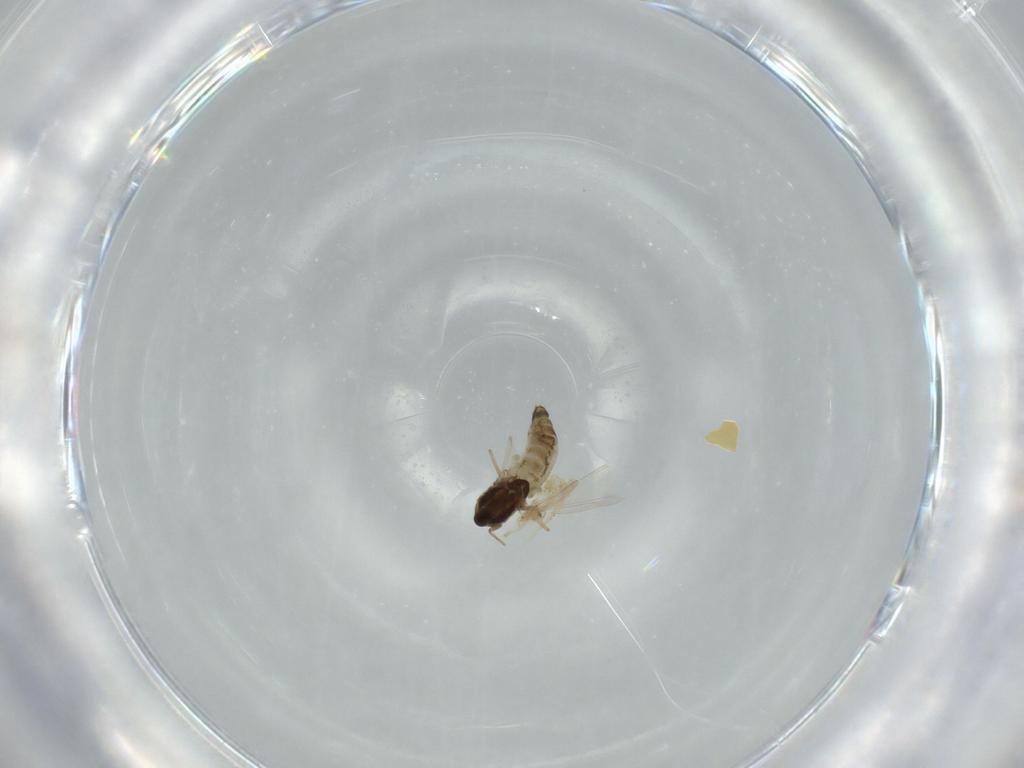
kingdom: Animalia
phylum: Arthropoda
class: Insecta
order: Diptera
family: Chironomidae
